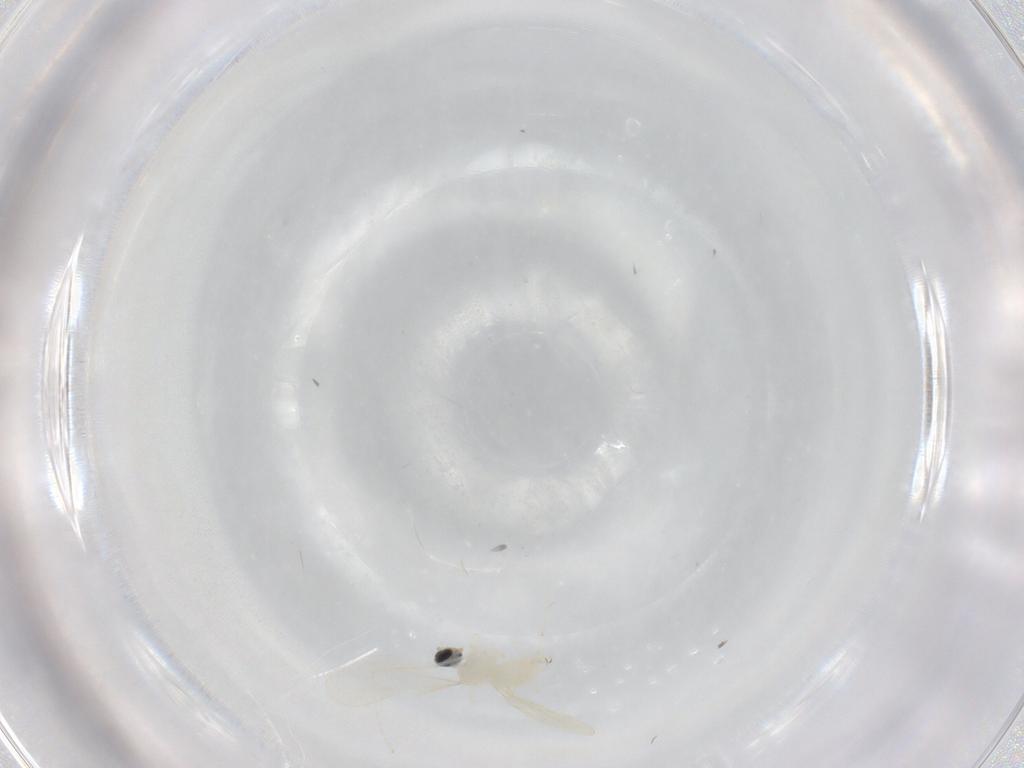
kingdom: Animalia
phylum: Arthropoda
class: Insecta
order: Diptera
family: Cecidomyiidae
